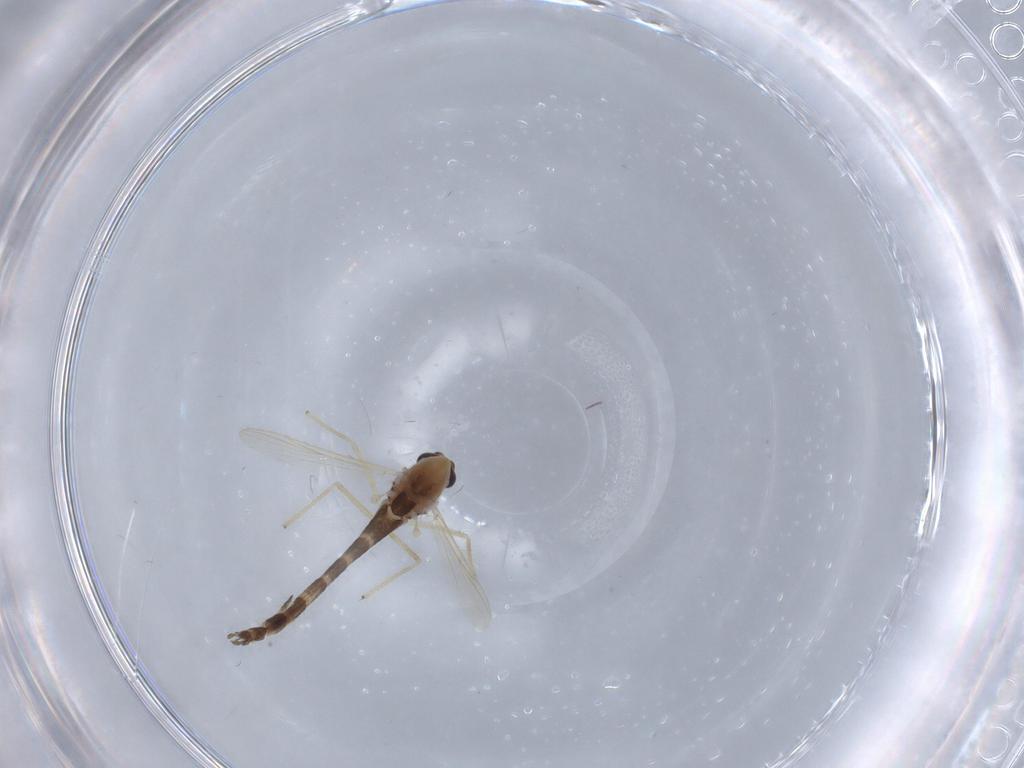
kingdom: Animalia
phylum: Arthropoda
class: Insecta
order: Diptera
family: Chironomidae
